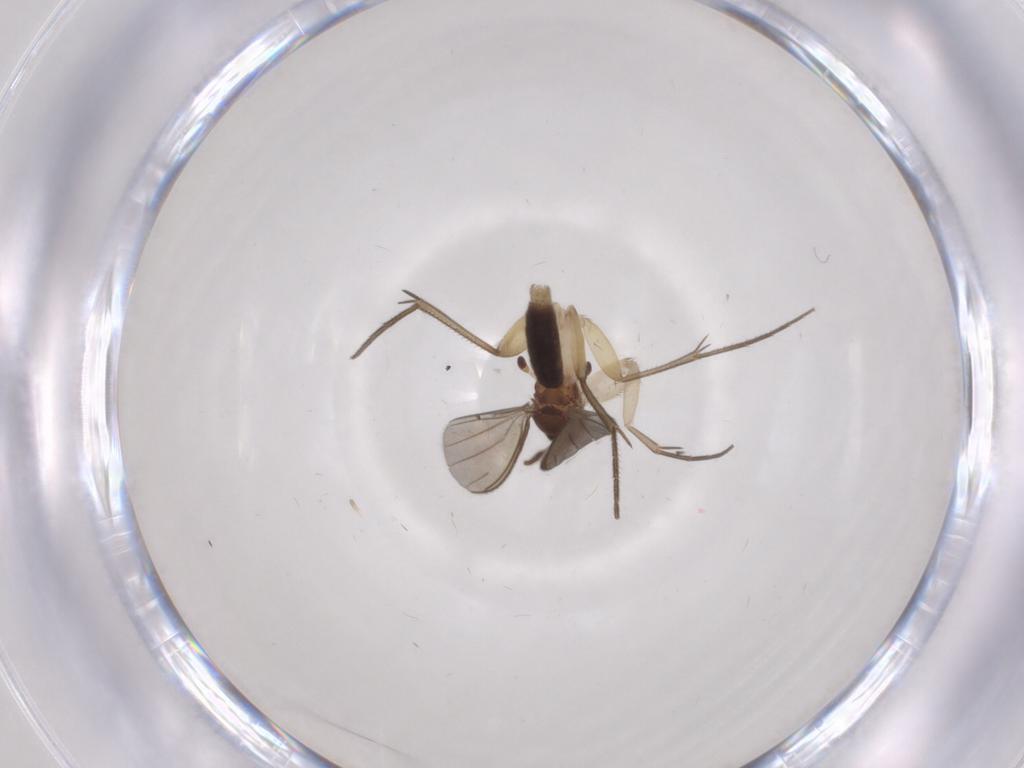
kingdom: Animalia
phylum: Arthropoda
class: Insecta
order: Diptera
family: Mycetophilidae
